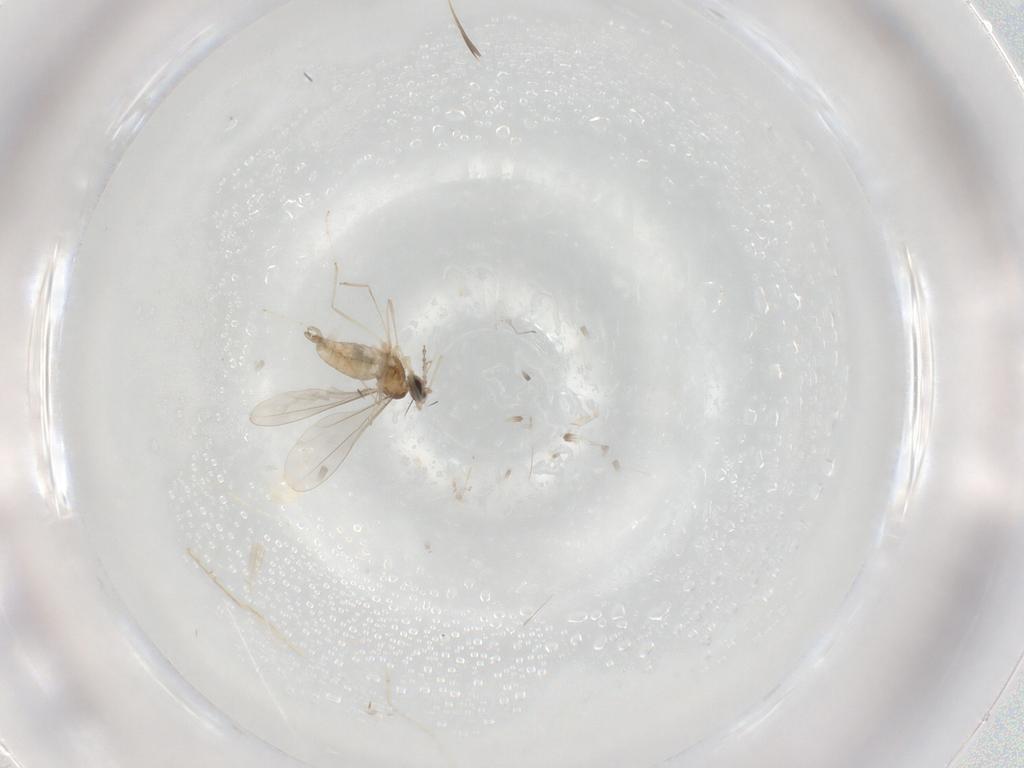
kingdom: Animalia
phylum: Arthropoda
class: Insecta
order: Diptera
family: Cecidomyiidae
